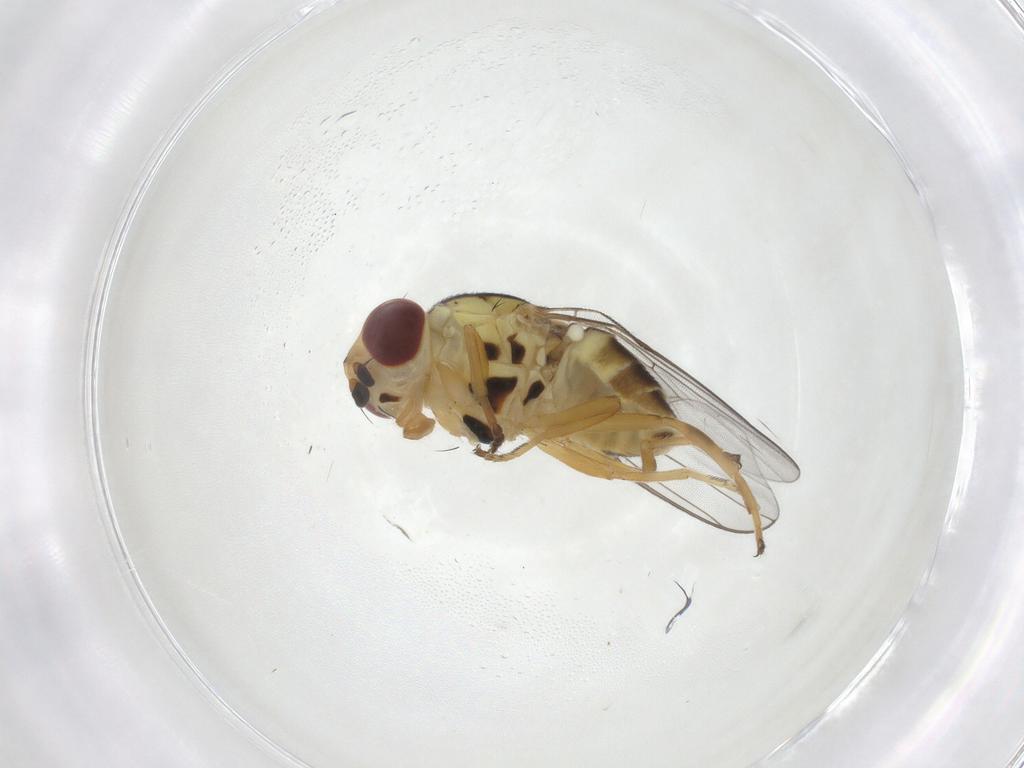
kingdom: Animalia
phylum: Arthropoda
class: Insecta
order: Diptera
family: Chloropidae
